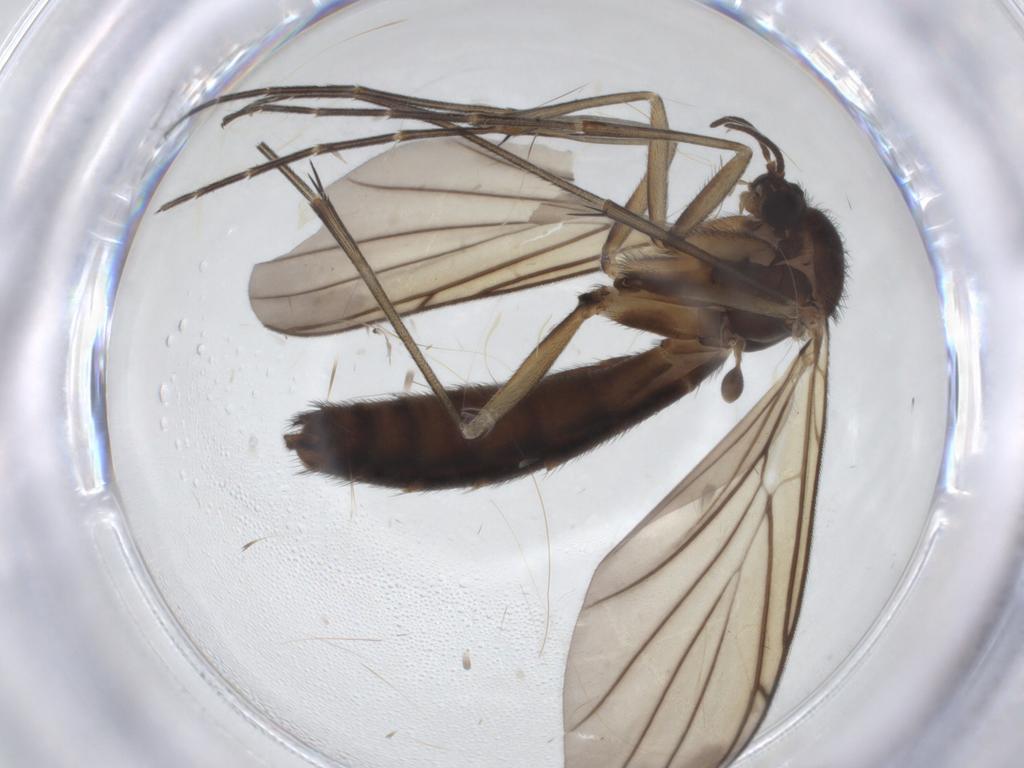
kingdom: Animalia
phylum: Arthropoda
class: Insecta
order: Diptera
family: Keroplatidae
